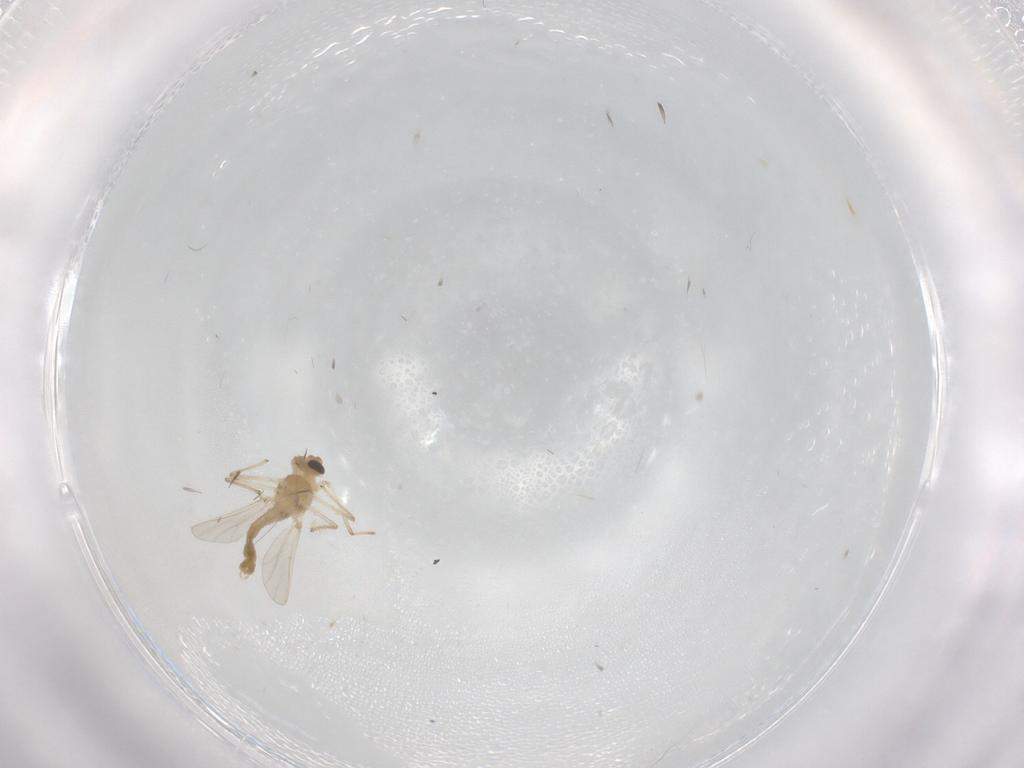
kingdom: Animalia
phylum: Arthropoda
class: Insecta
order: Diptera
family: Chironomidae
